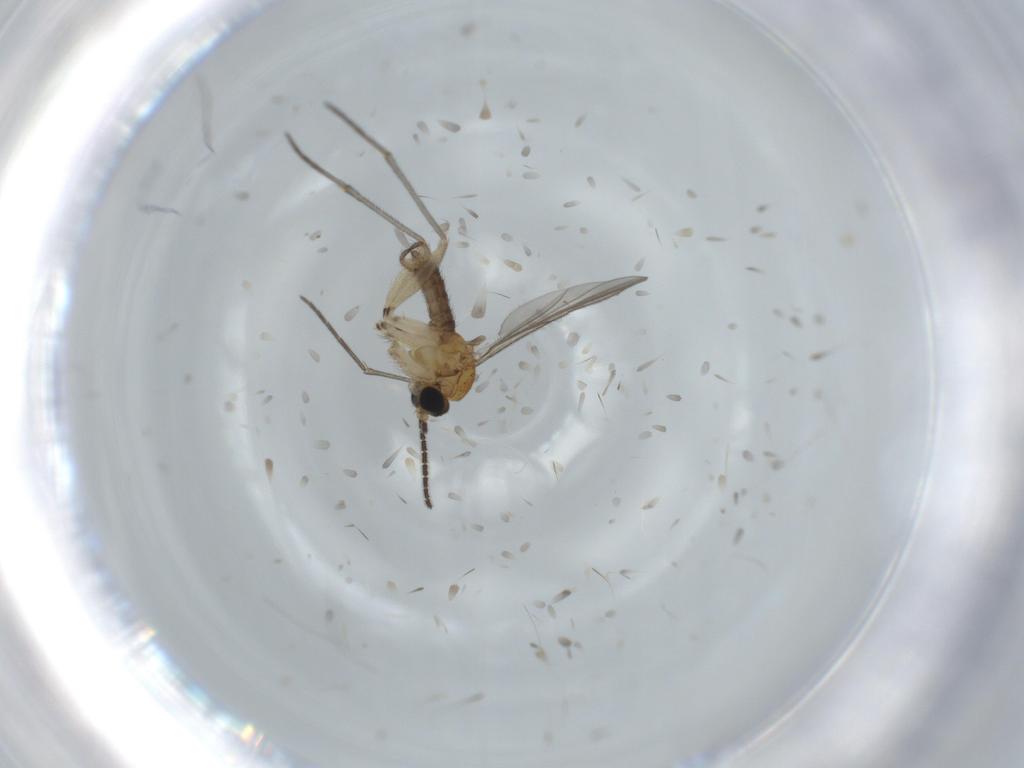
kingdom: Animalia
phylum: Arthropoda
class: Insecta
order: Diptera
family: Sciaridae
